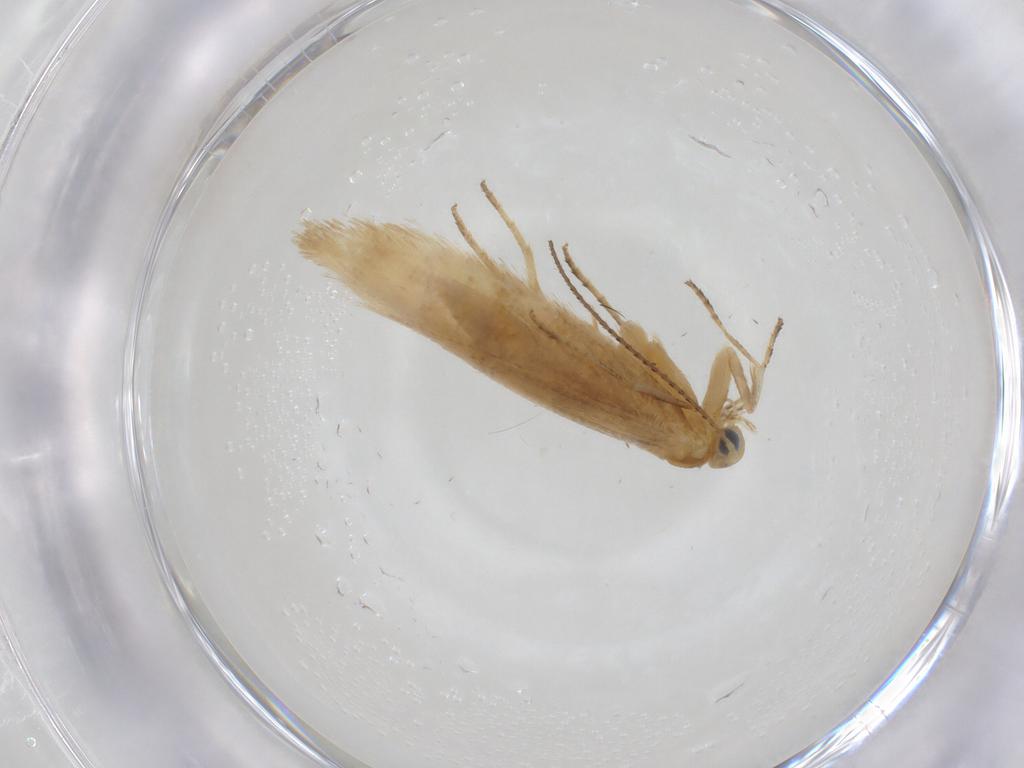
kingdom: Animalia
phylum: Arthropoda
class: Insecta
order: Lepidoptera
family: Argyresthiidae
